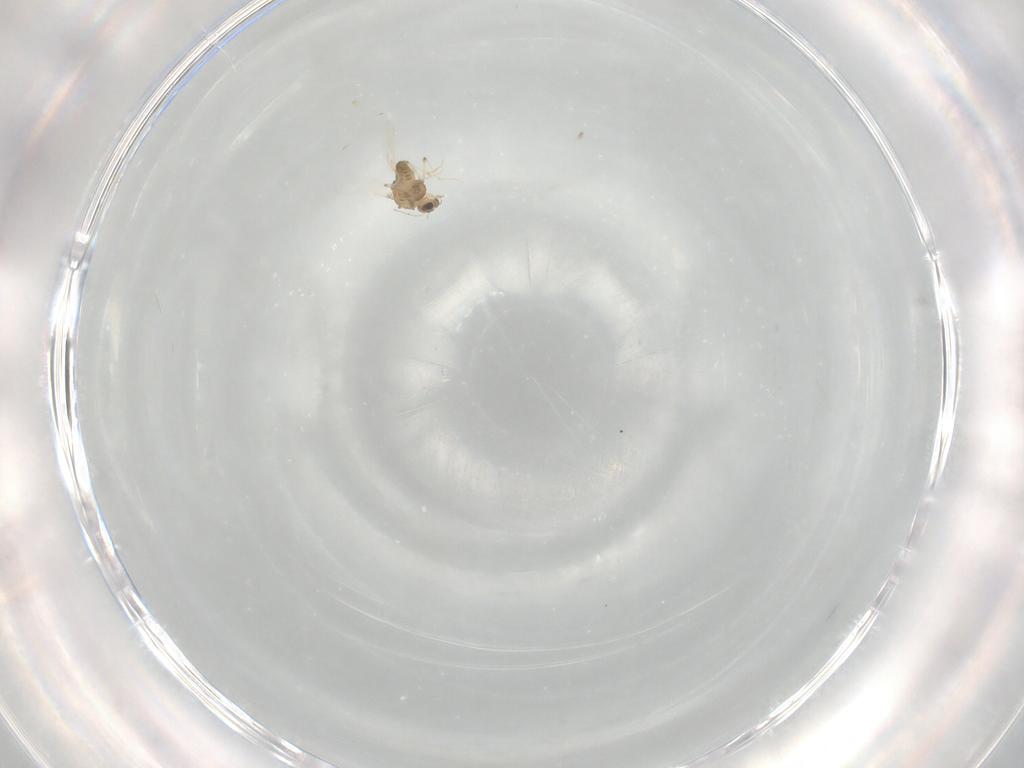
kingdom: Animalia
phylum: Arthropoda
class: Insecta
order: Diptera
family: Chironomidae
